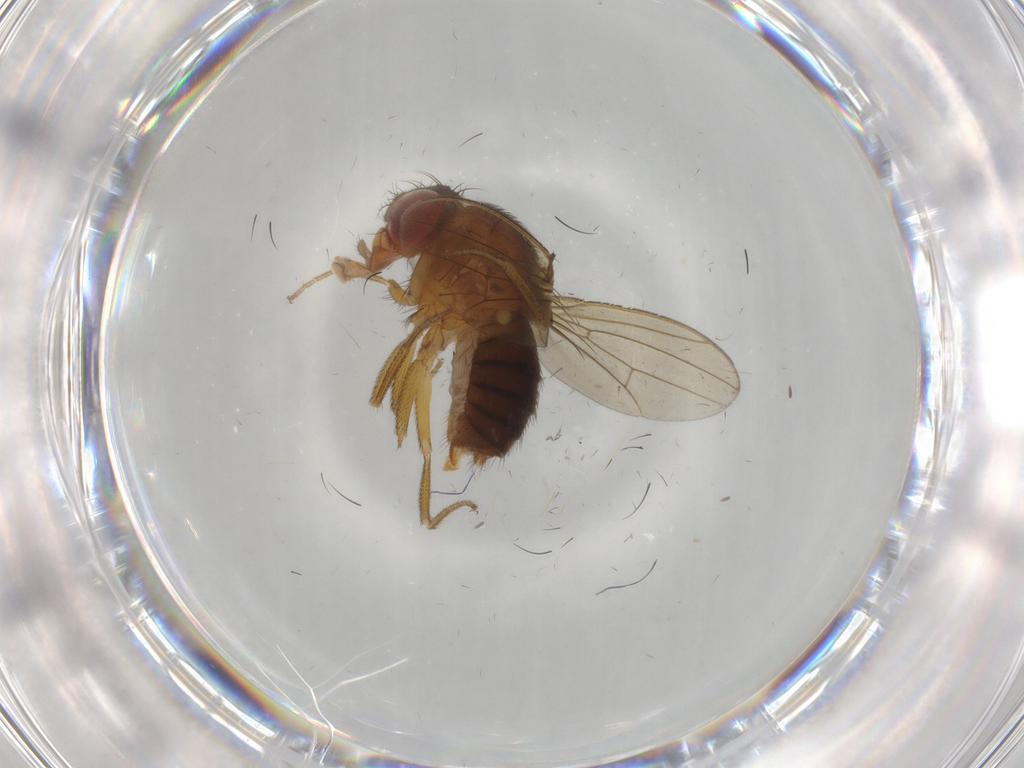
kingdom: Animalia
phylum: Arthropoda
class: Insecta
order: Diptera
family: Drosophilidae
